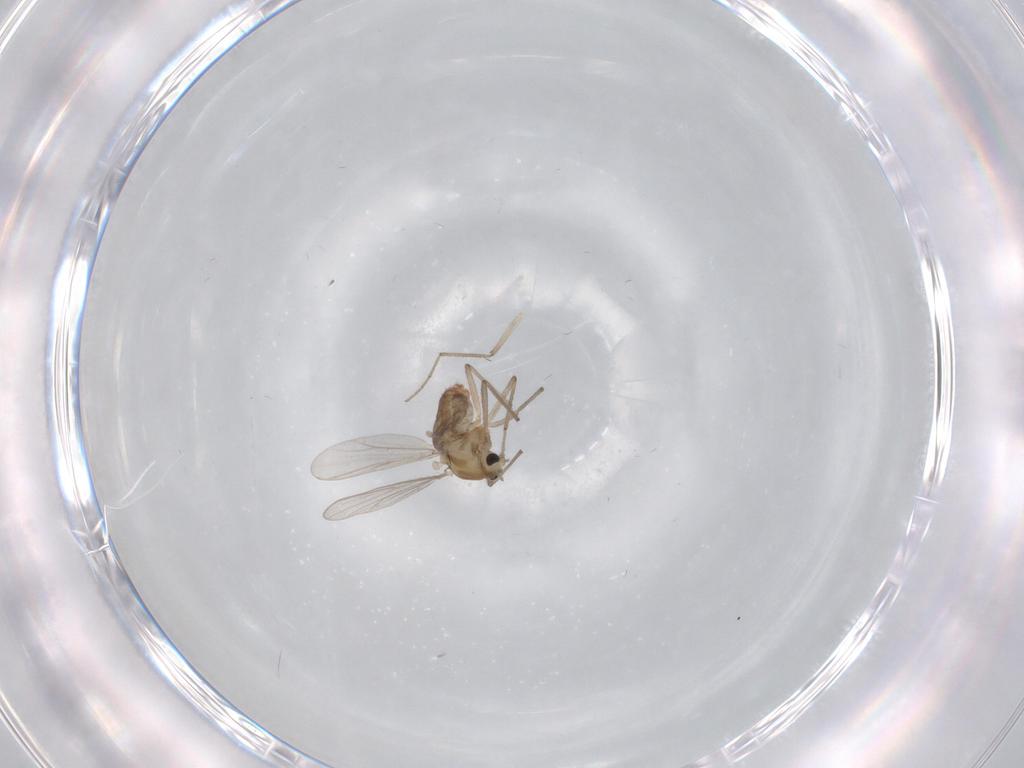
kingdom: Animalia
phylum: Arthropoda
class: Insecta
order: Diptera
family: Chironomidae
